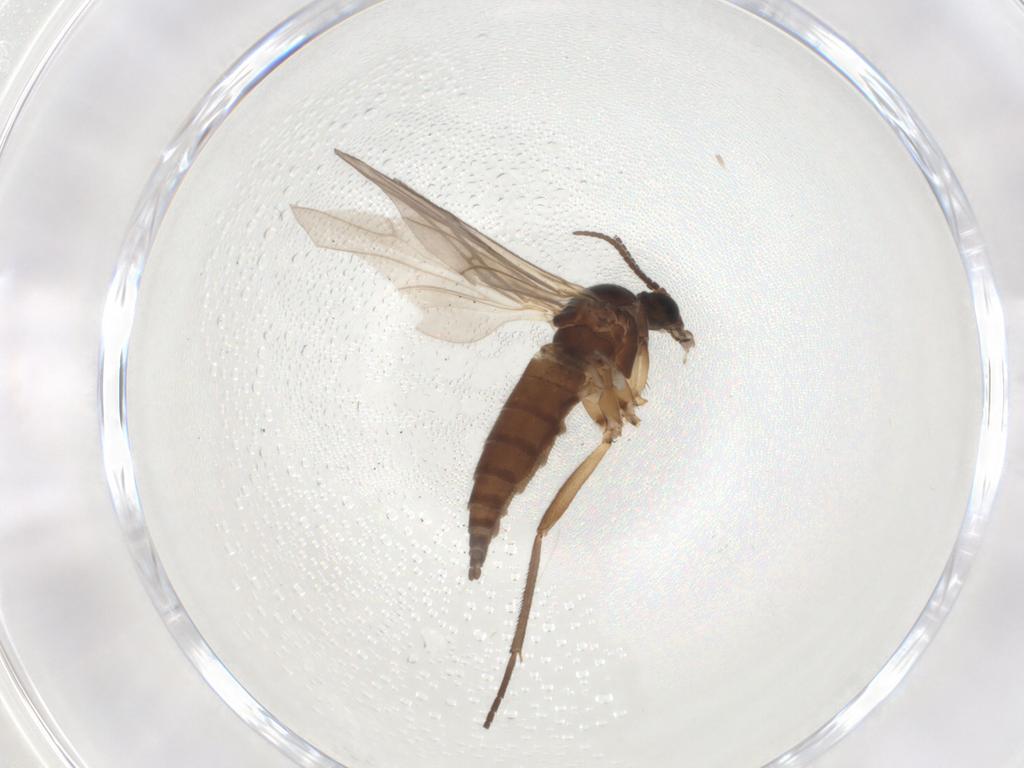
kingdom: Animalia
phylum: Arthropoda
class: Insecta
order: Diptera
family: Sciaridae
